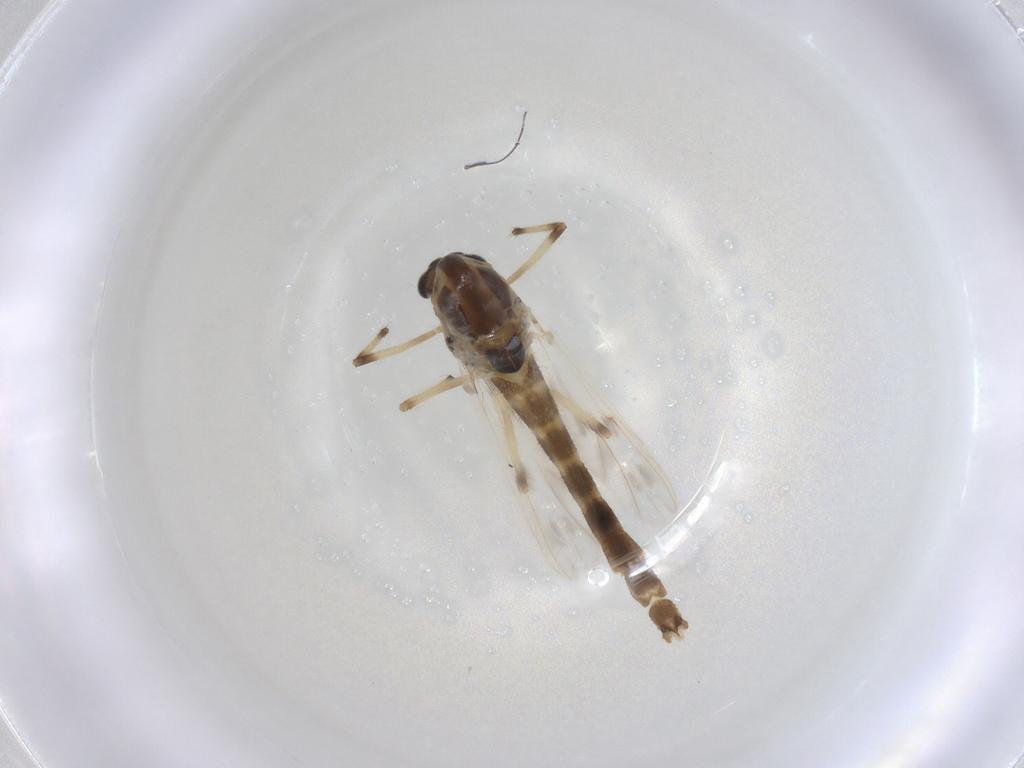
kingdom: Animalia
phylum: Arthropoda
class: Insecta
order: Diptera
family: Chironomidae
